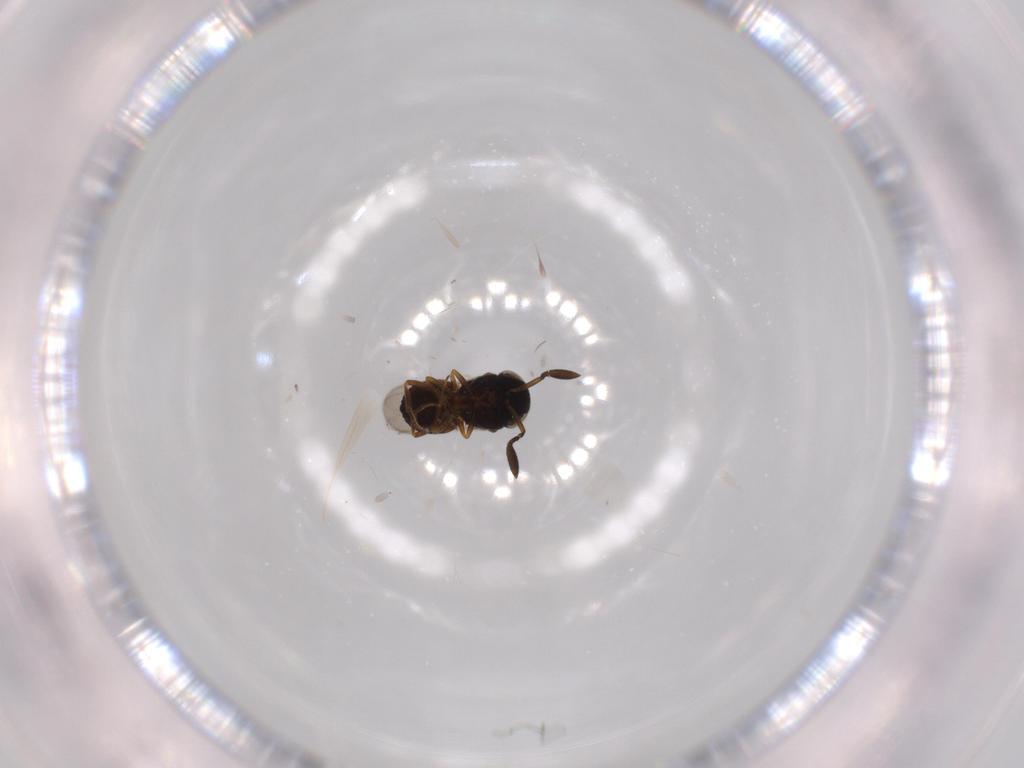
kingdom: Animalia
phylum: Arthropoda
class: Insecta
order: Hymenoptera
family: Scelionidae
